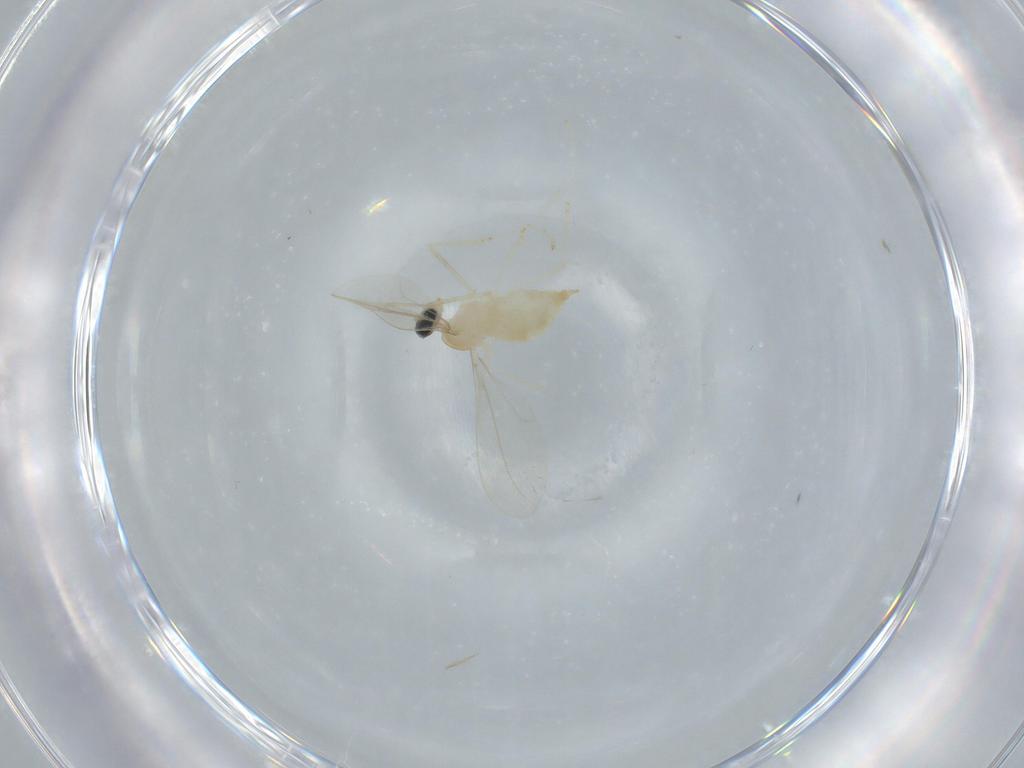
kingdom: Animalia
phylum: Arthropoda
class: Insecta
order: Diptera
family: Cecidomyiidae
